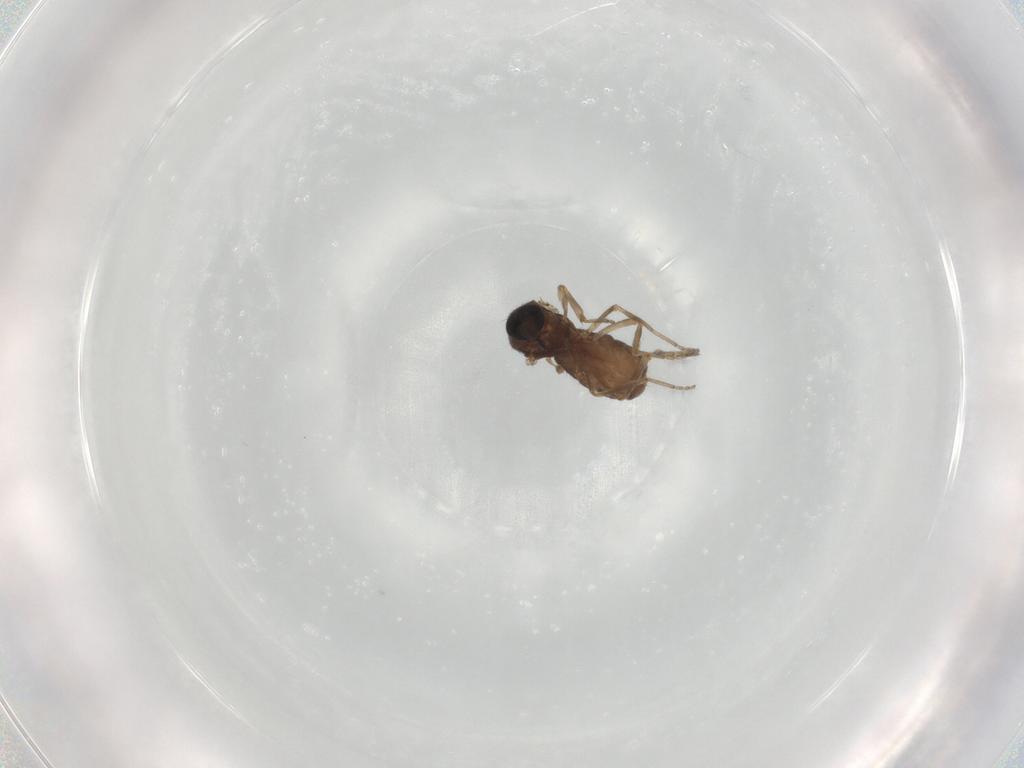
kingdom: Animalia
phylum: Arthropoda
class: Insecta
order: Diptera
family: Ceratopogonidae
